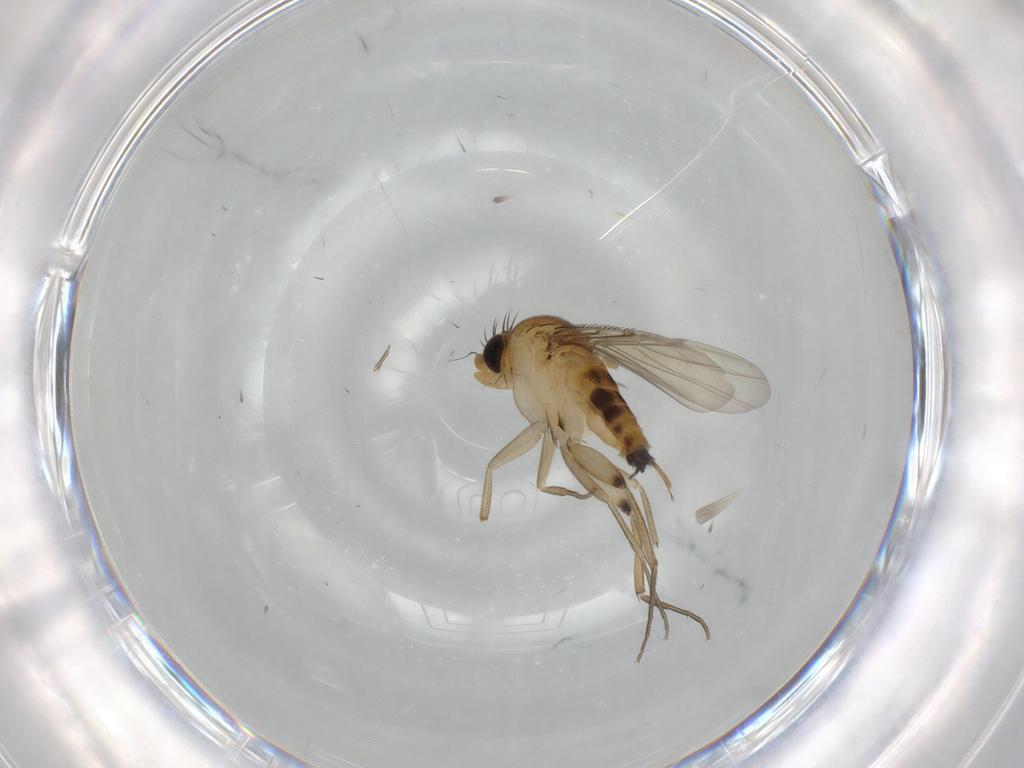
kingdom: Animalia
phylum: Arthropoda
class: Insecta
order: Diptera
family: Phoridae
